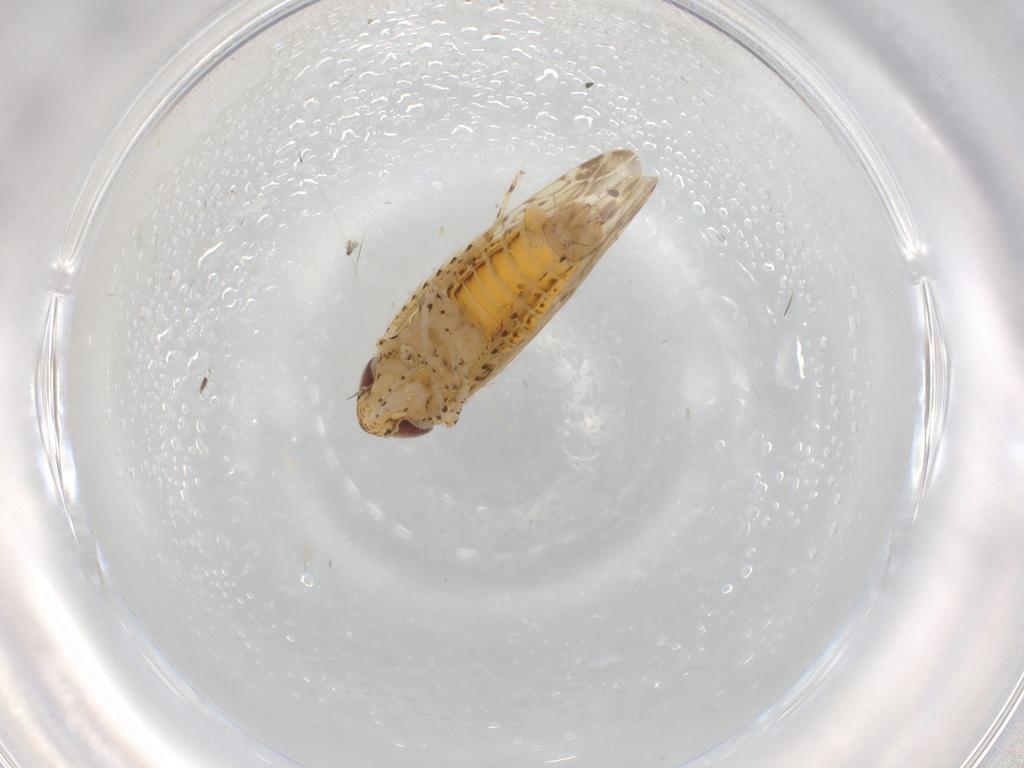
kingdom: Animalia
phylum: Arthropoda
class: Insecta
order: Hemiptera
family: Cicadellidae
